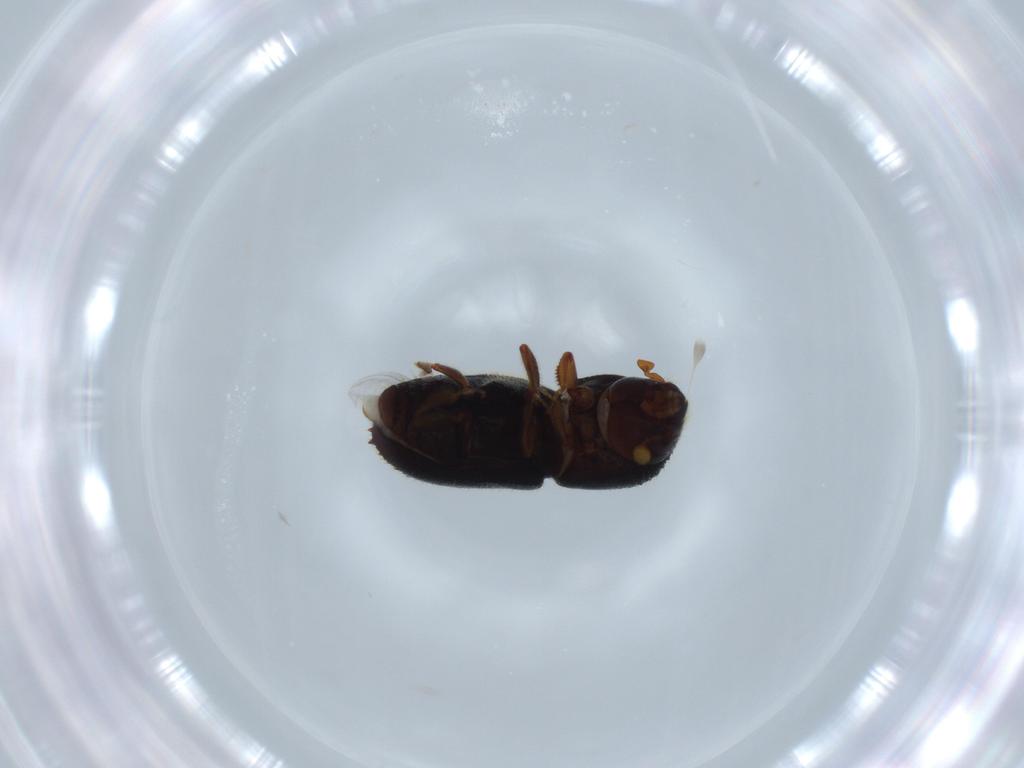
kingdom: Animalia
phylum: Arthropoda
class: Insecta
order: Coleoptera
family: Curculionidae
